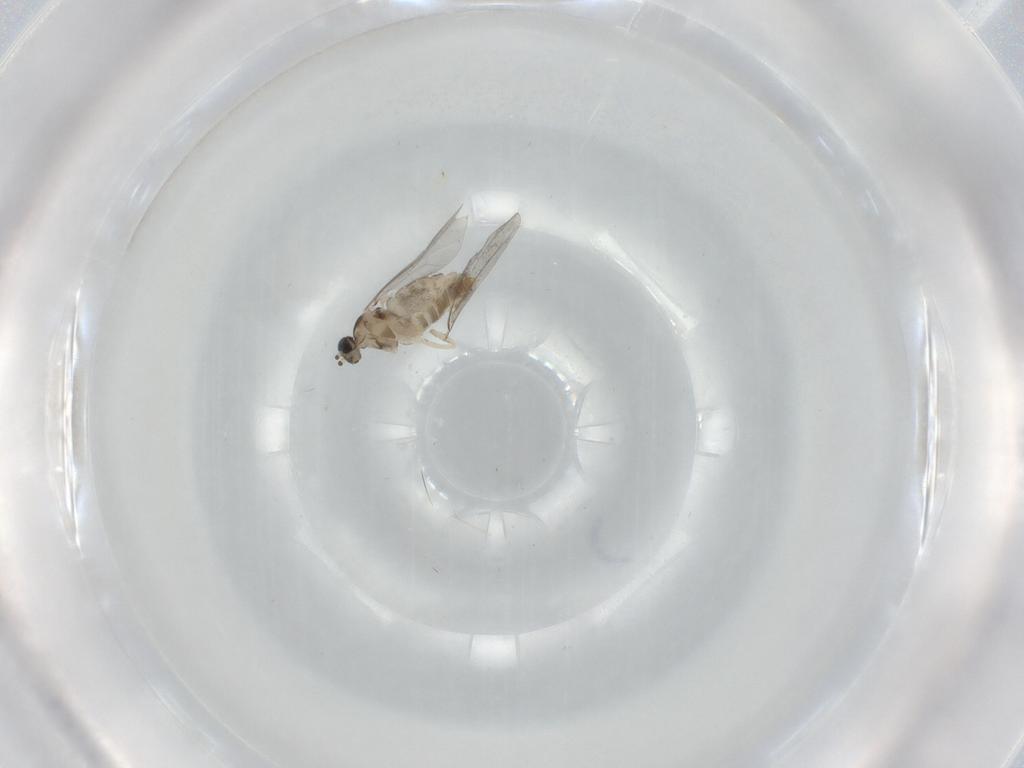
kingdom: Animalia
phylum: Arthropoda
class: Insecta
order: Diptera
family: Cecidomyiidae
